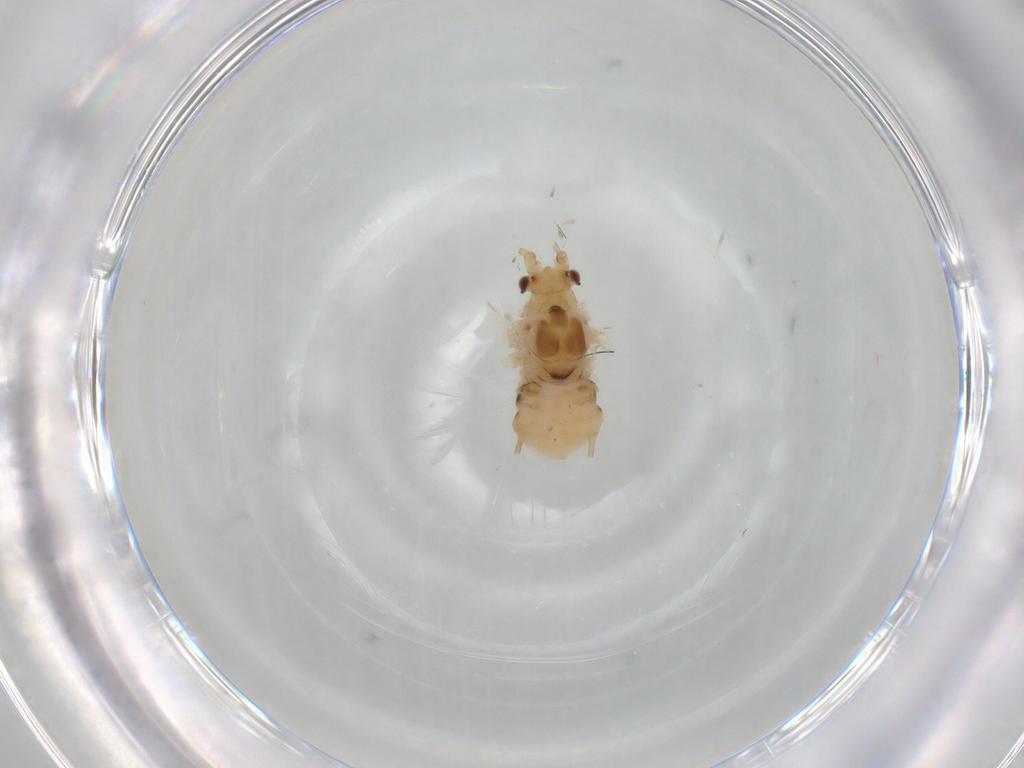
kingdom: Animalia
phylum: Arthropoda
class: Insecta
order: Hemiptera
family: Aphididae
